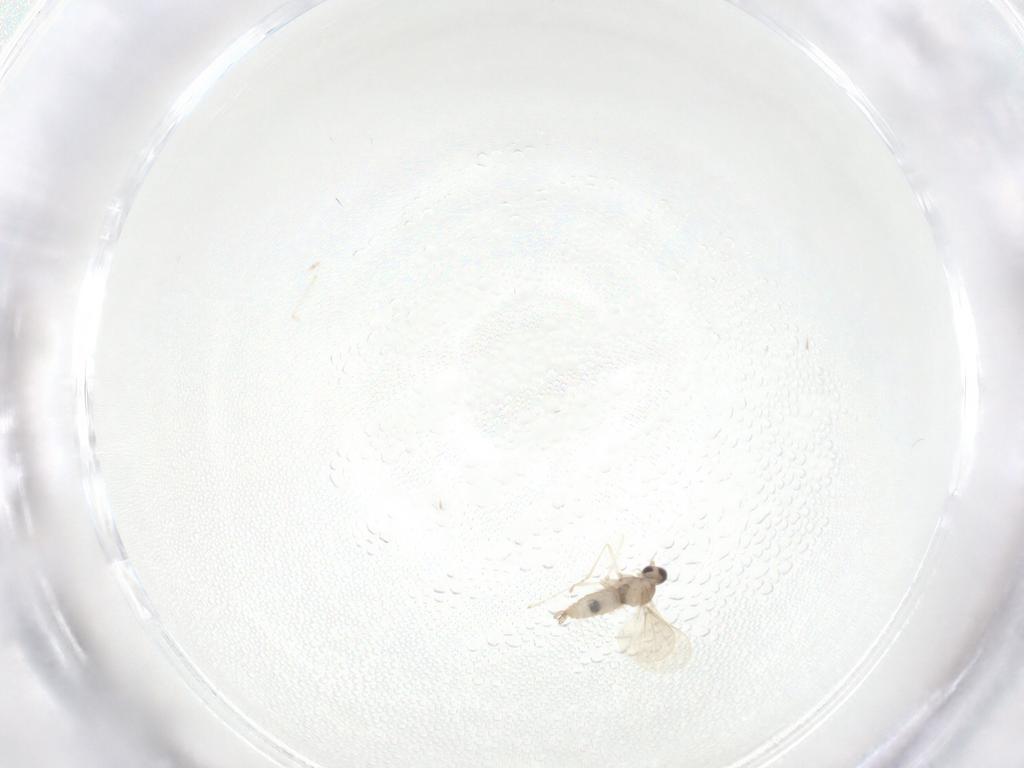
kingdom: Animalia
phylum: Arthropoda
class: Insecta
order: Diptera
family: Cecidomyiidae
